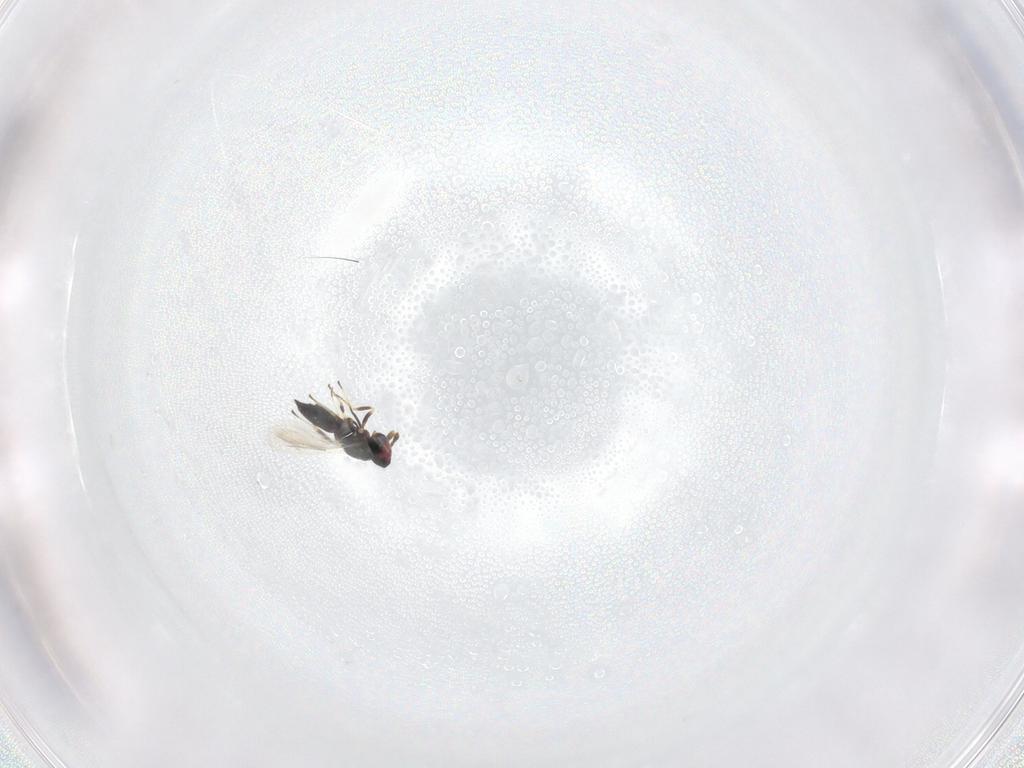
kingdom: Animalia
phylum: Arthropoda
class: Insecta
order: Hymenoptera
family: Tetracampidae
